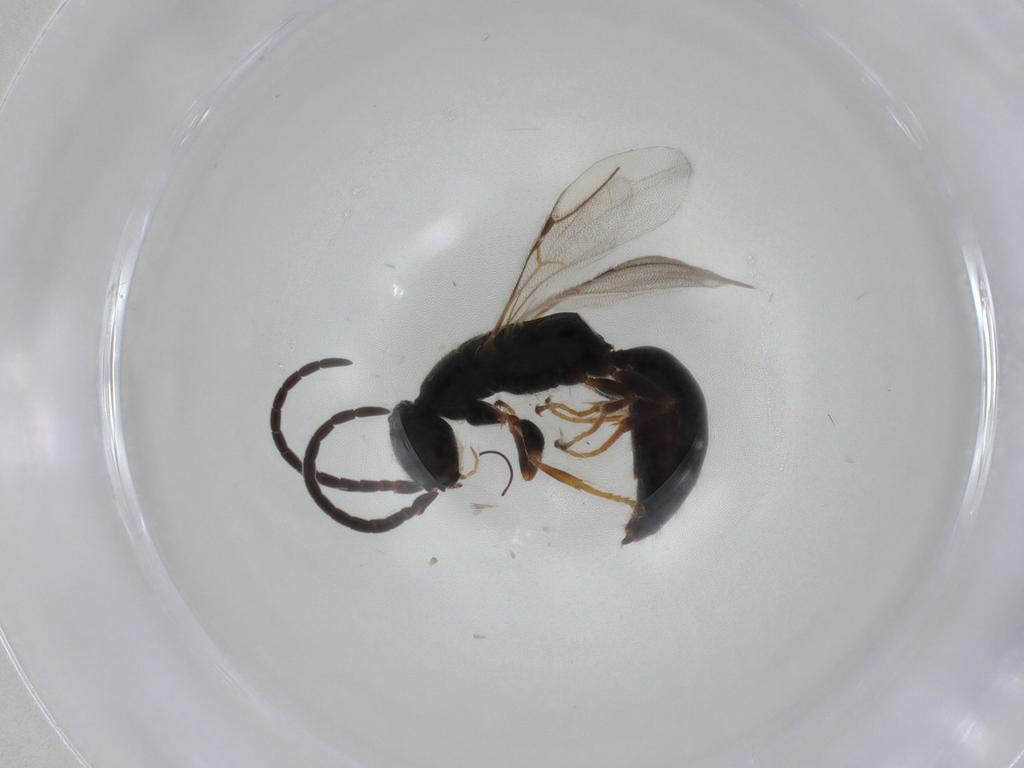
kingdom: Animalia
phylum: Arthropoda
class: Insecta
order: Hymenoptera
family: Bethylidae
